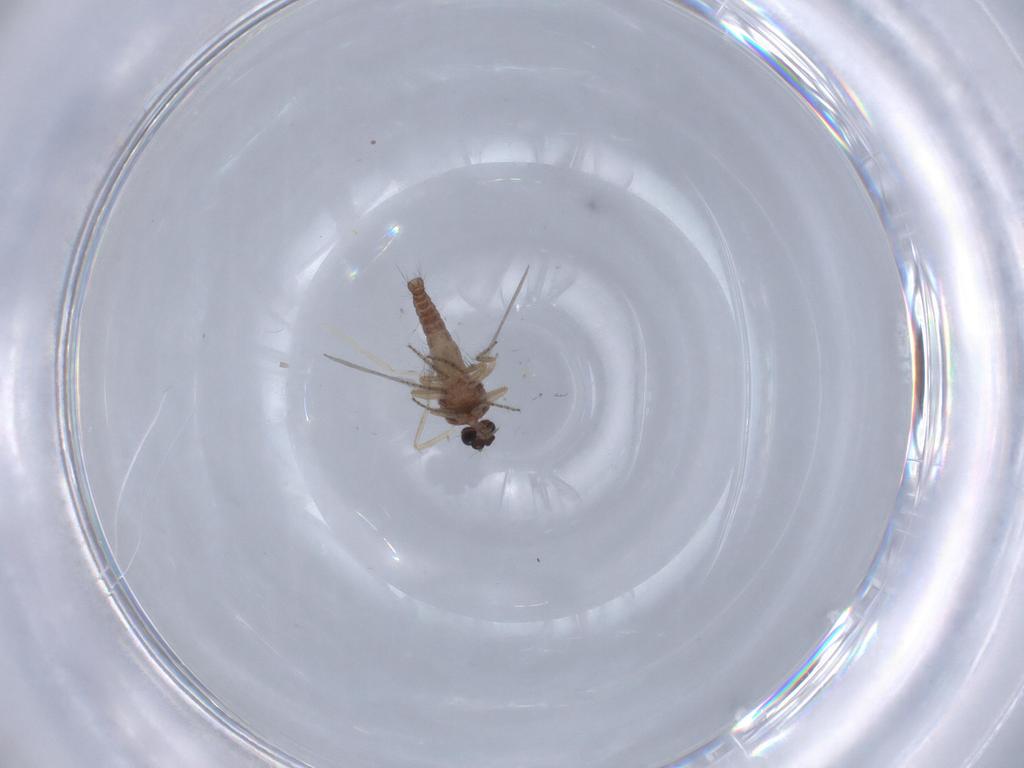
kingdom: Animalia
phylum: Arthropoda
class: Insecta
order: Diptera
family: Ceratopogonidae
